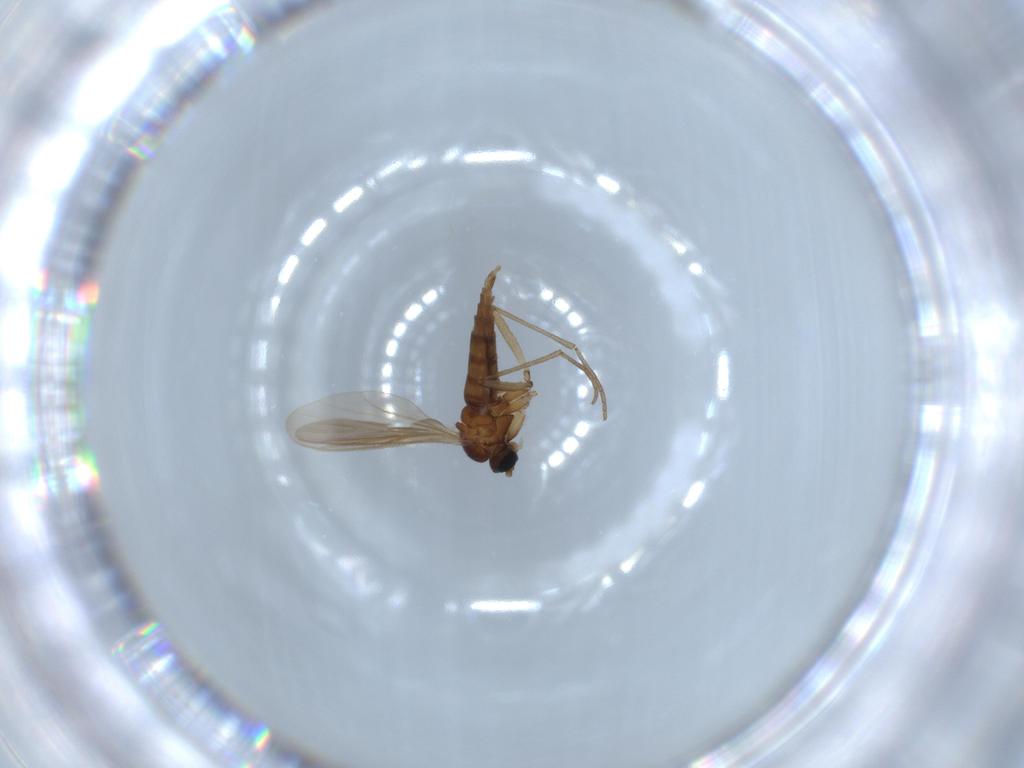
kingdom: Animalia
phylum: Arthropoda
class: Insecta
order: Diptera
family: Sciaridae
